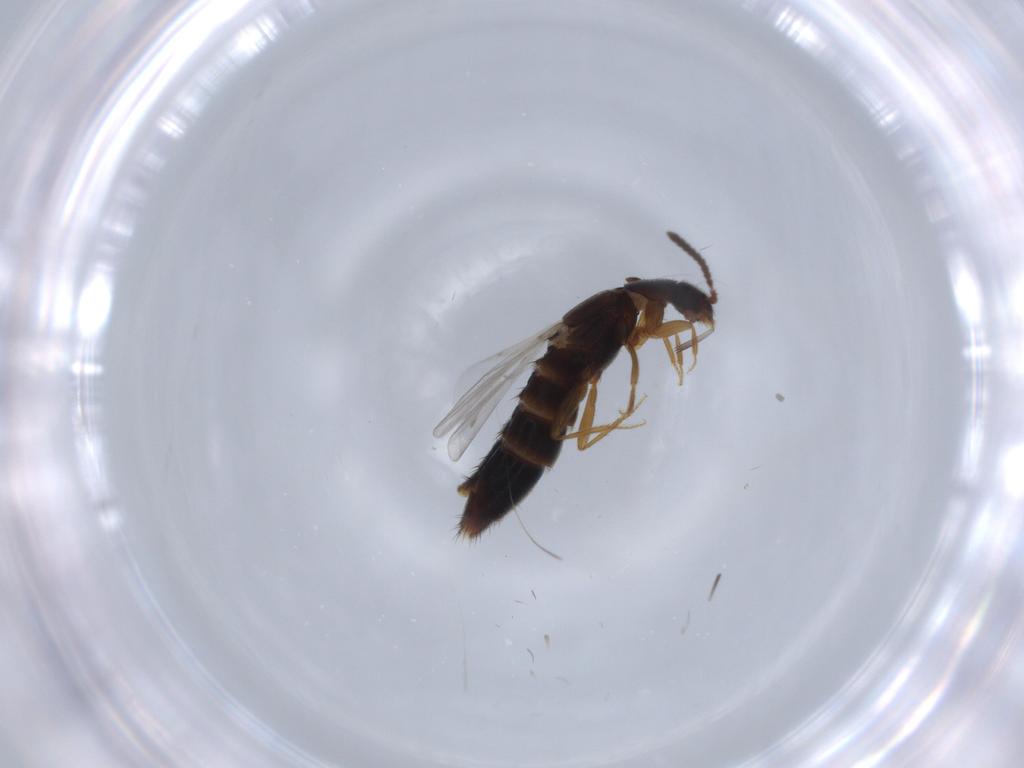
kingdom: Animalia
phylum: Arthropoda
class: Insecta
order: Coleoptera
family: Chrysomelidae
